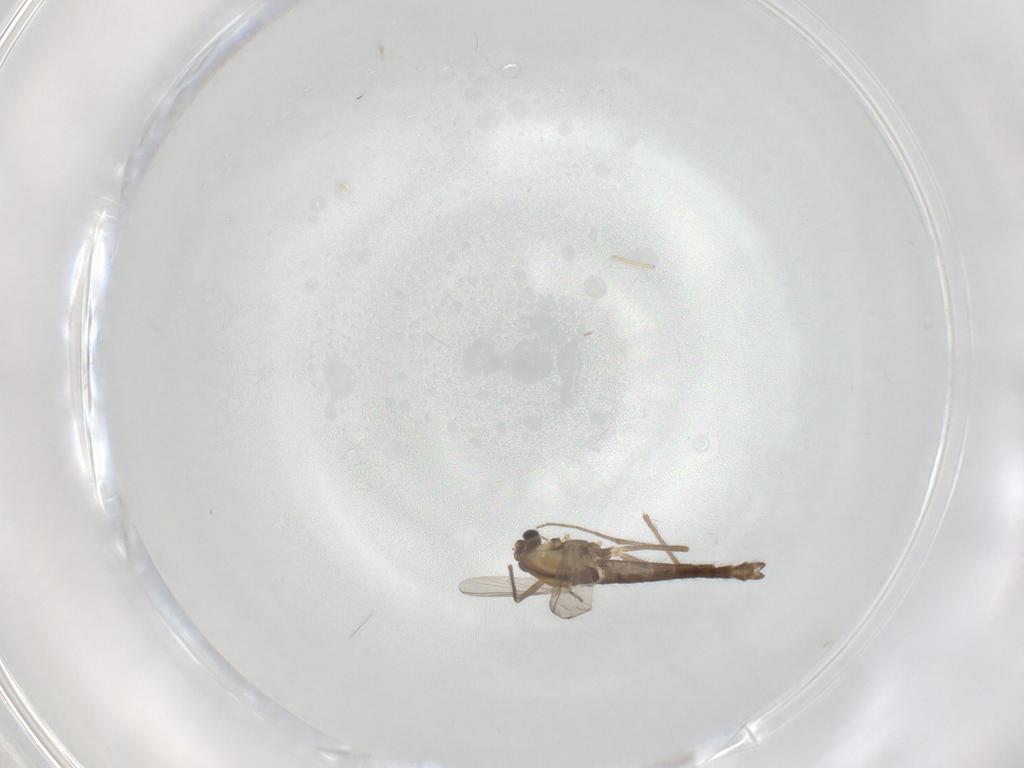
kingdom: Animalia
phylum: Arthropoda
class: Insecta
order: Diptera
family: Chironomidae
